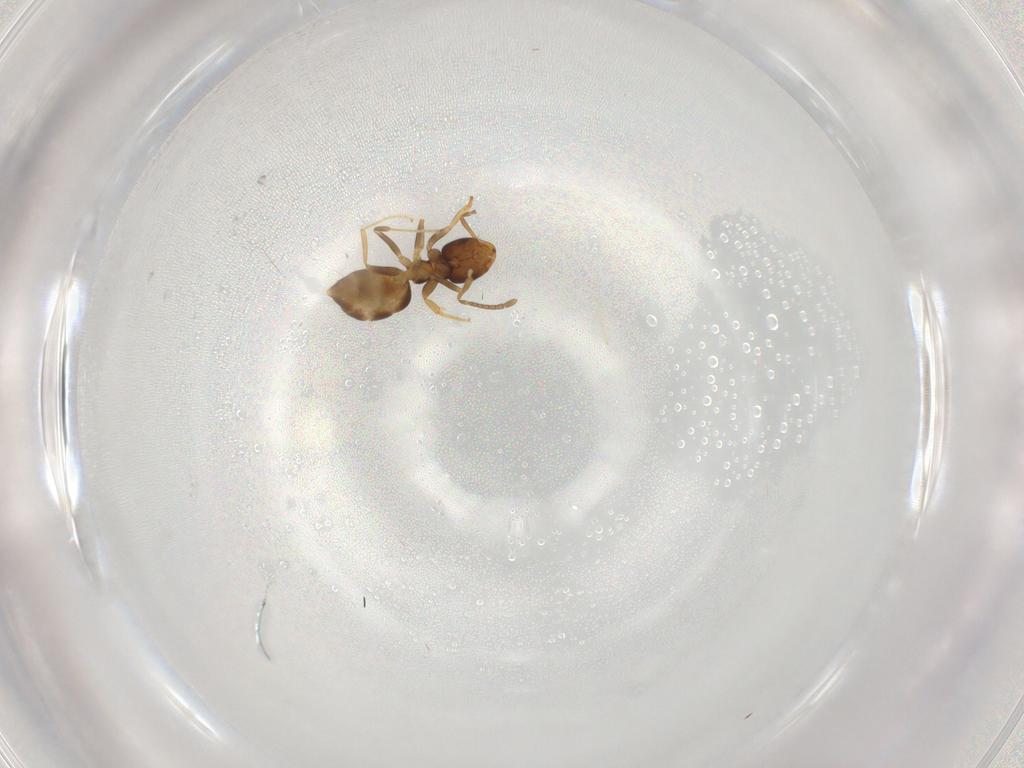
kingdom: Animalia
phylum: Arthropoda
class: Insecta
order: Hymenoptera
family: Formicidae
